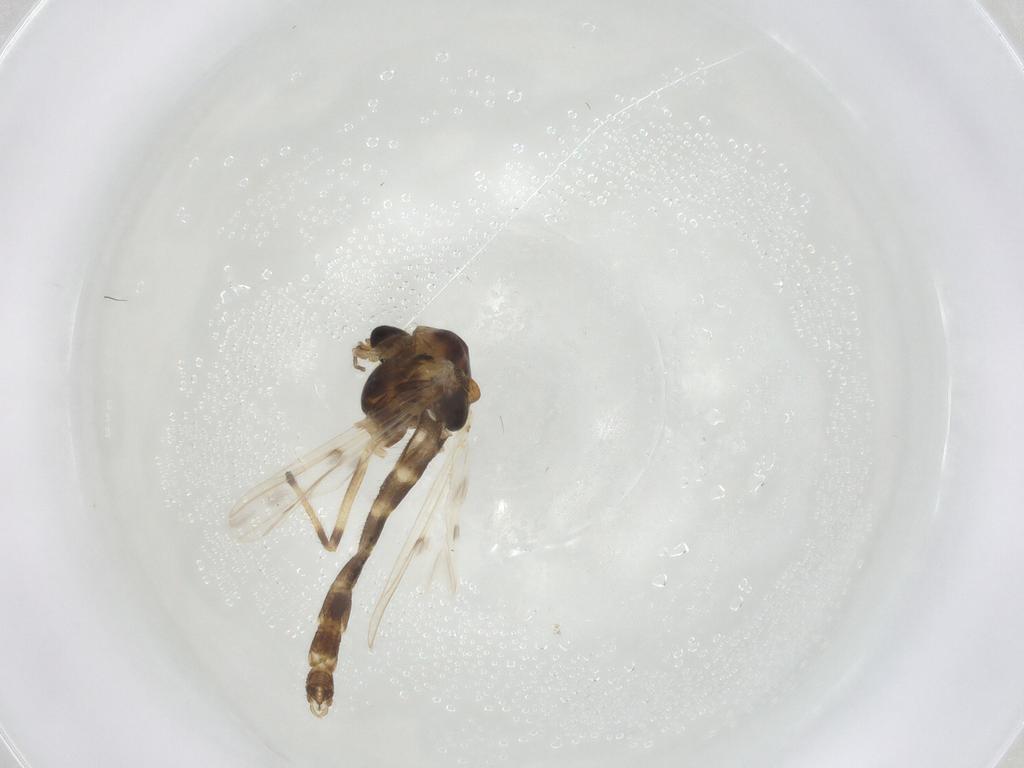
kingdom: Animalia
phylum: Arthropoda
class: Insecta
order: Diptera
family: Chironomidae
